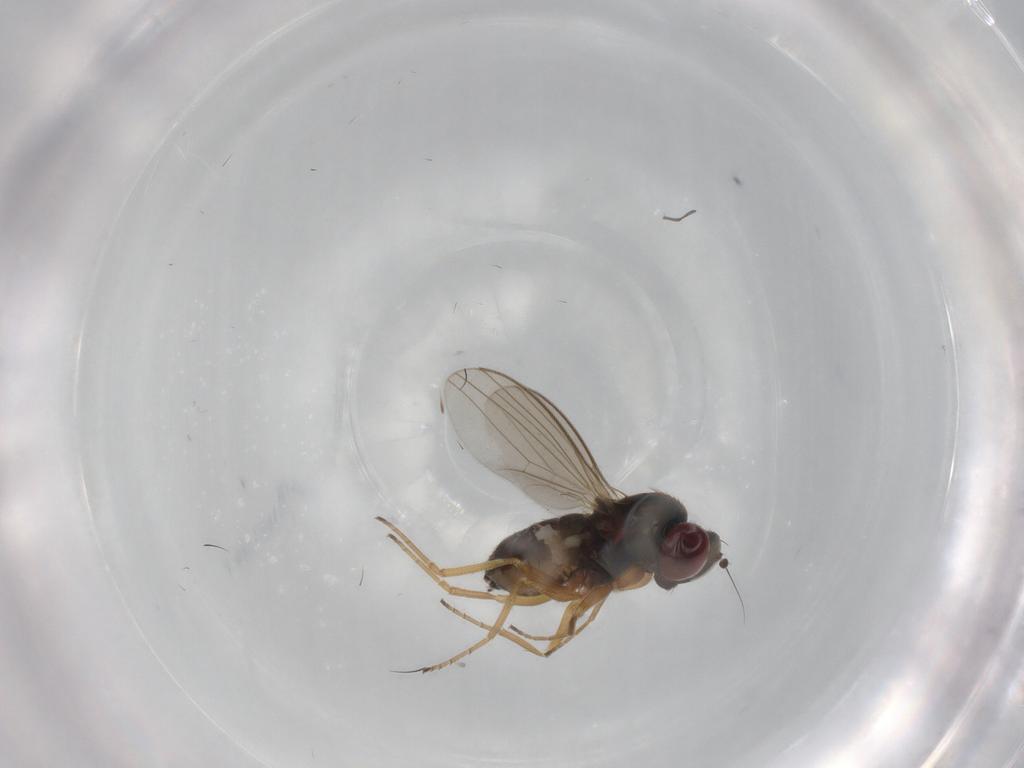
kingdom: Animalia
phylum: Arthropoda
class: Insecta
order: Diptera
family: Dolichopodidae
